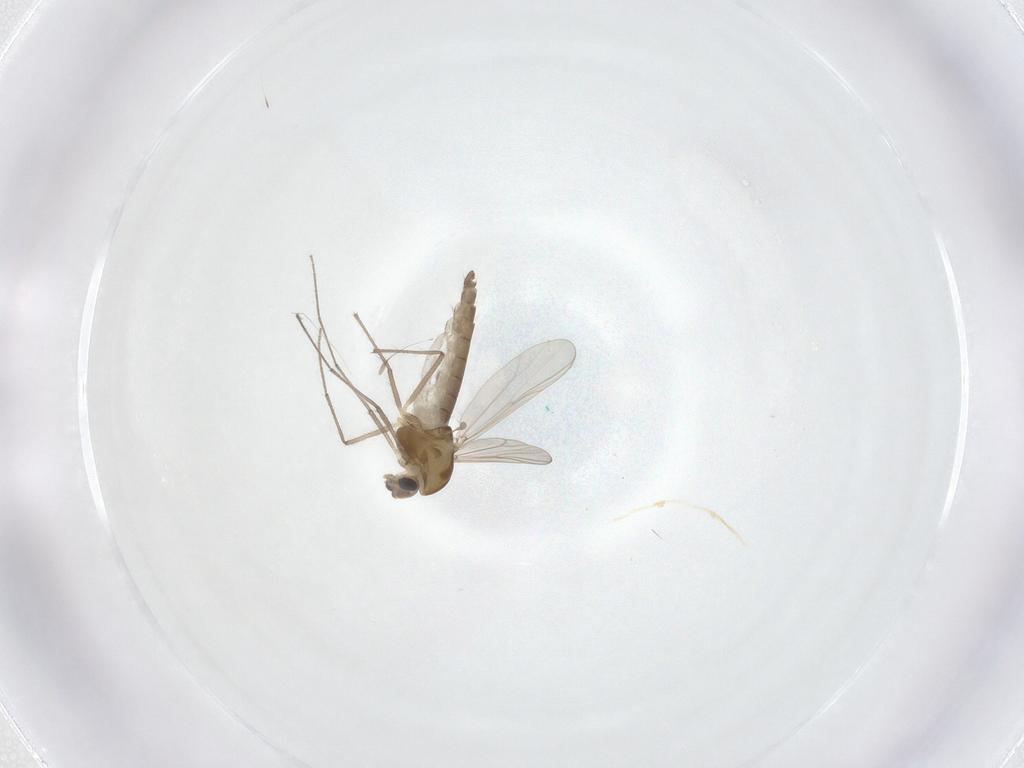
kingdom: Animalia
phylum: Arthropoda
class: Insecta
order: Diptera
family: Chironomidae
